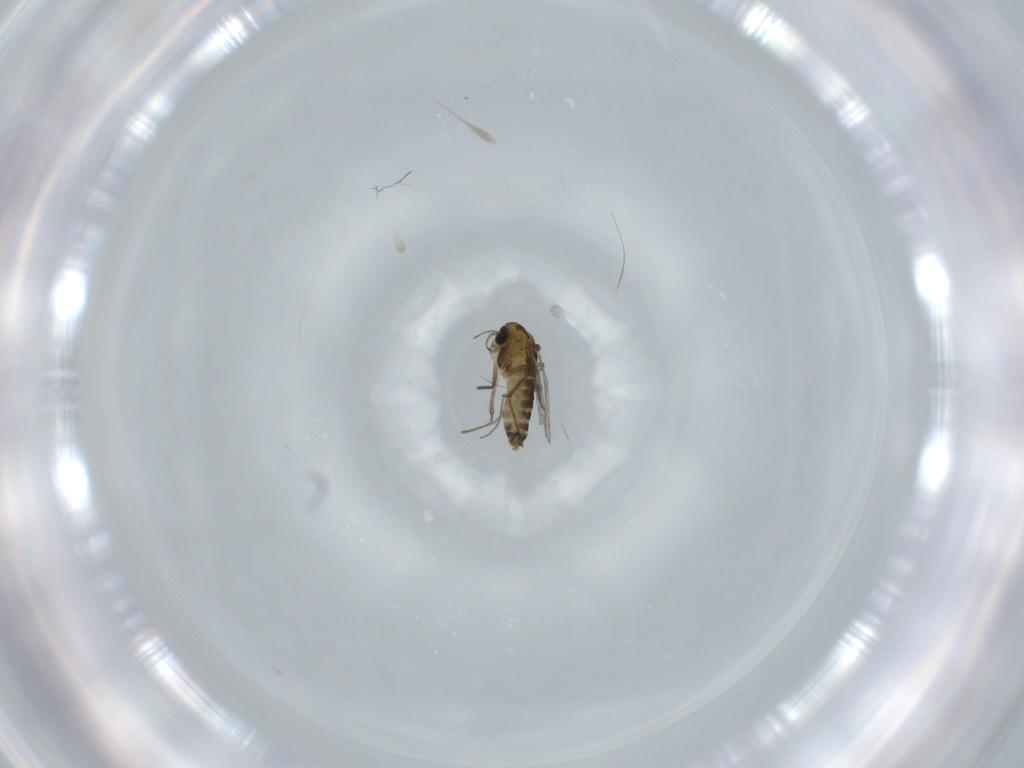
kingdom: Animalia
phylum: Arthropoda
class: Insecta
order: Diptera
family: Chironomidae
